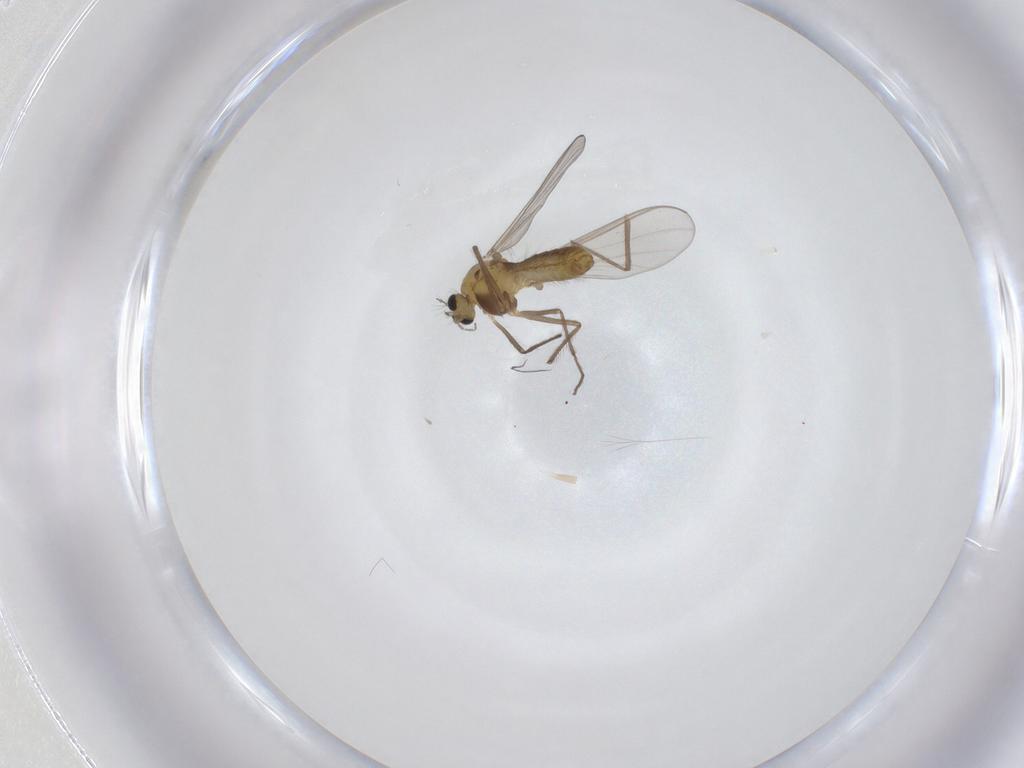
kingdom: Animalia
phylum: Arthropoda
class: Insecta
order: Diptera
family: Chironomidae
